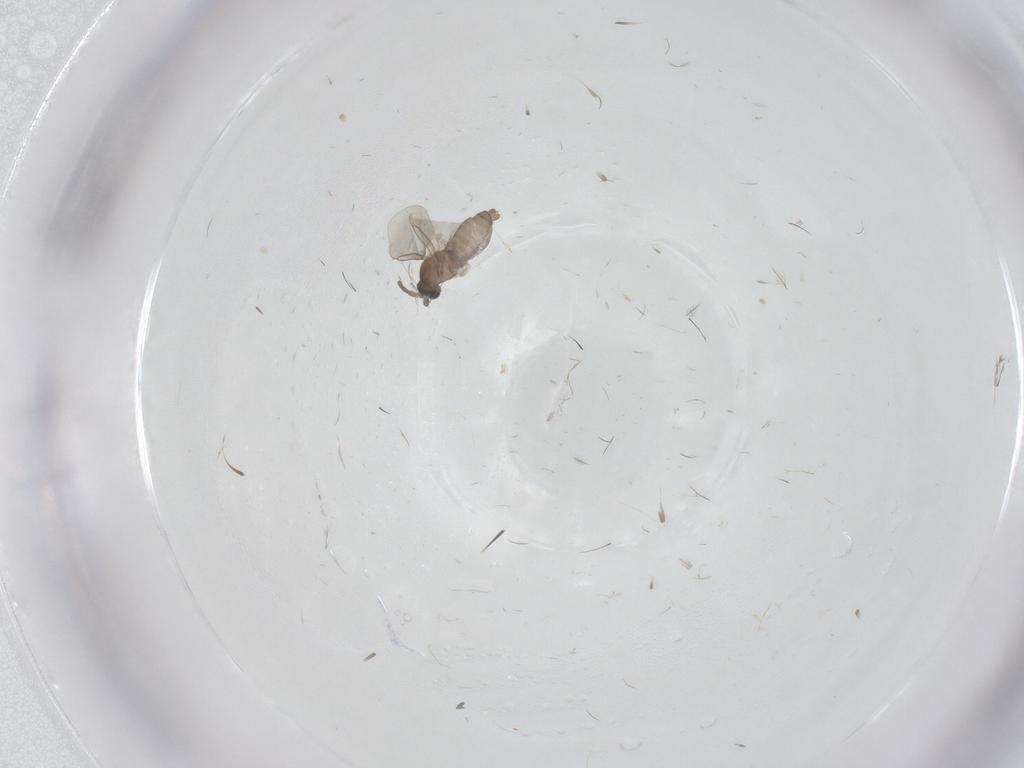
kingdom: Animalia
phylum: Arthropoda
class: Insecta
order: Diptera
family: Cecidomyiidae
